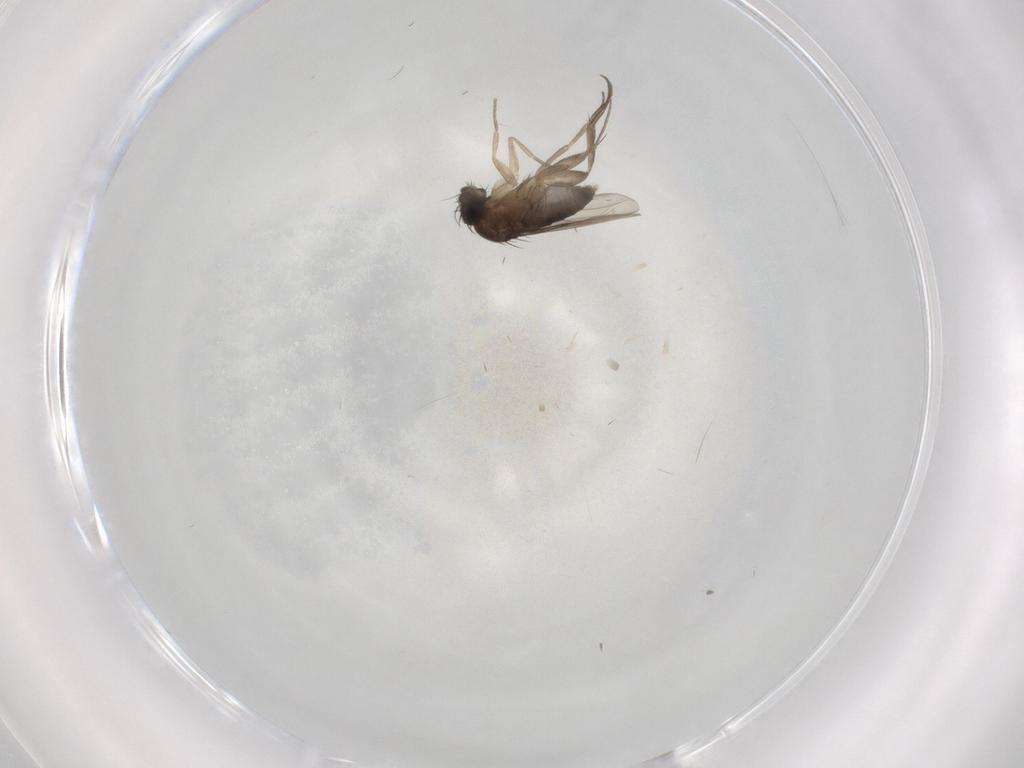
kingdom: Animalia
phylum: Arthropoda
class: Insecta
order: Diptera
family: Phoridae
